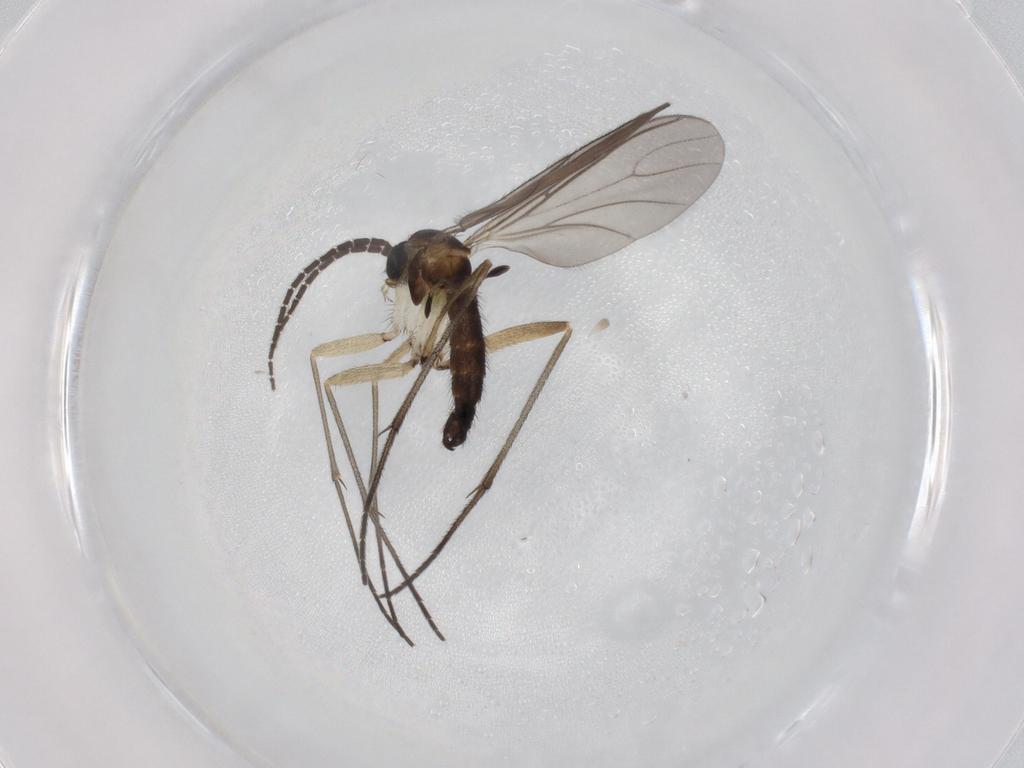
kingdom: Animalia
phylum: Arthropoda
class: Insecta
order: Diptera
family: Sciaridae
